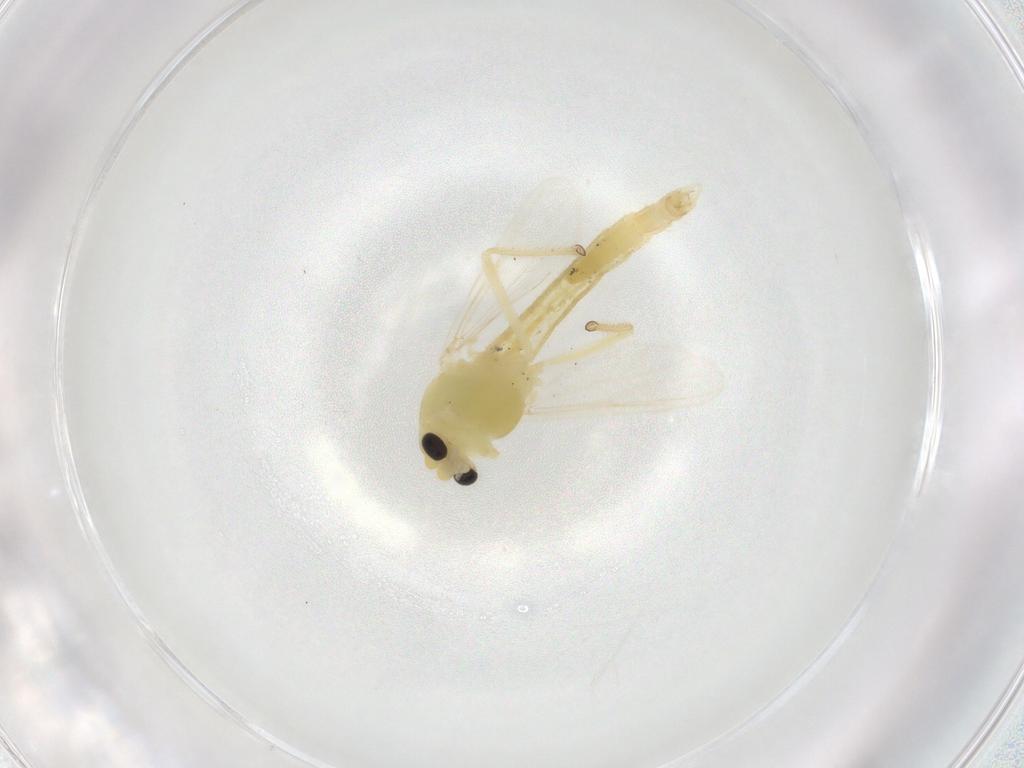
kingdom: Animalia
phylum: Arthropoda
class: Insecta
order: Diptera
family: Chironomidae
